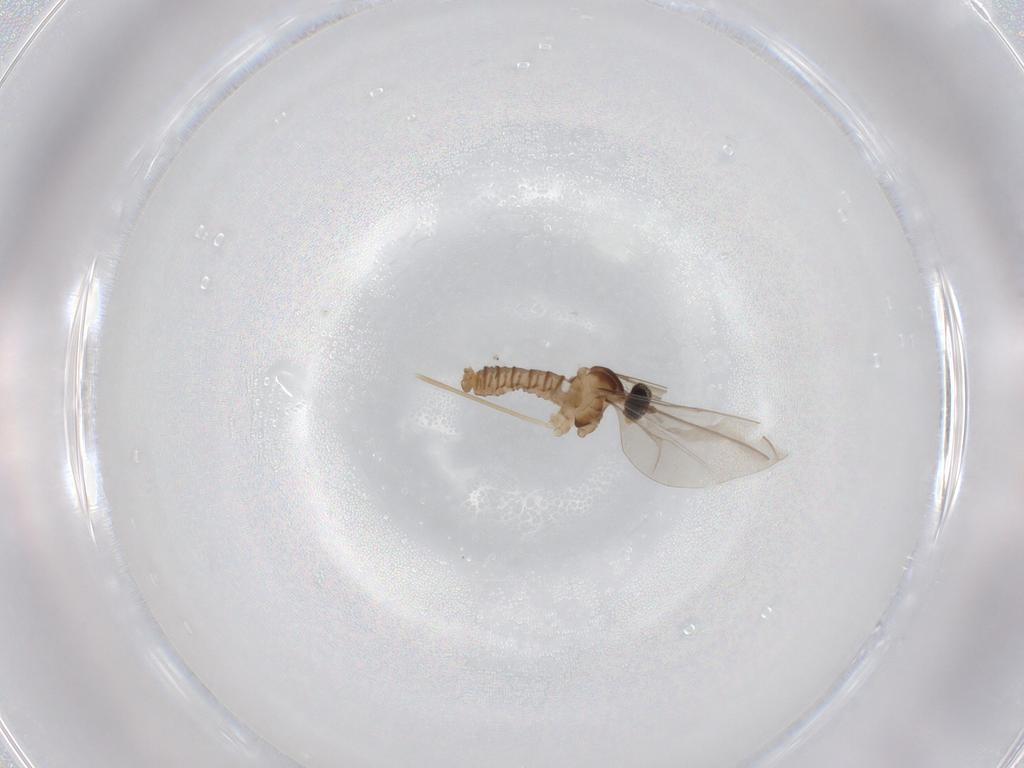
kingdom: Animalia
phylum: Arthropoda
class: Insecta
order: Diptera
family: Cecidomyiidae
